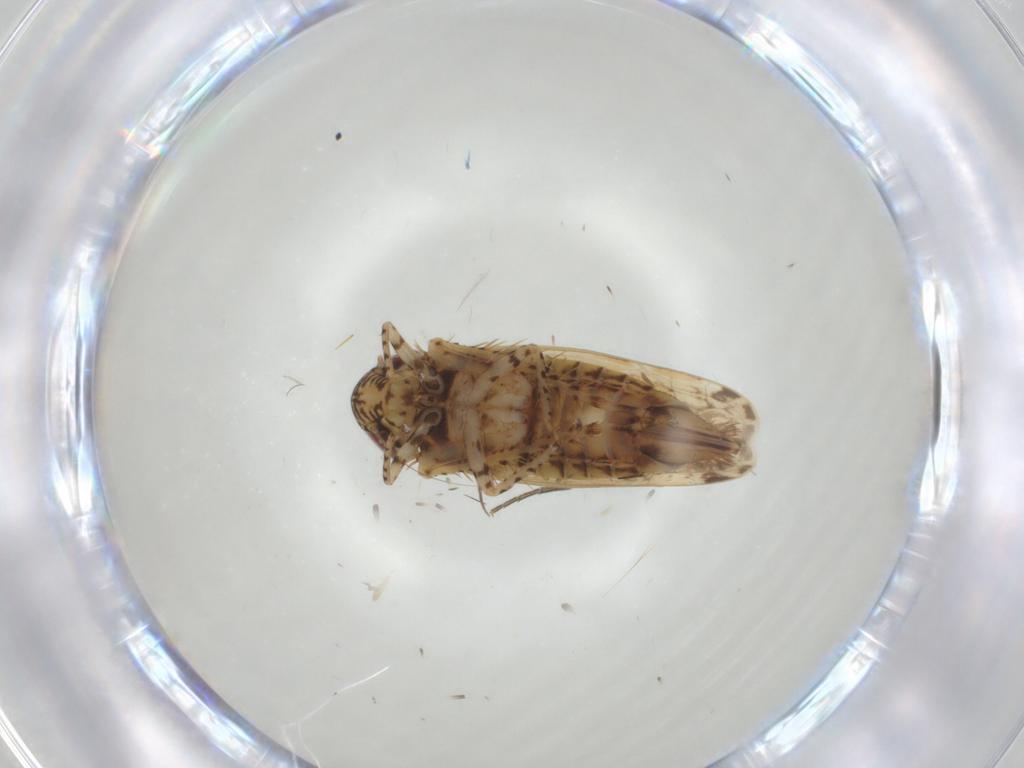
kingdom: Animalia
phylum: Arthropoda
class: Insecta
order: Hemiptera
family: Cicadellidae
